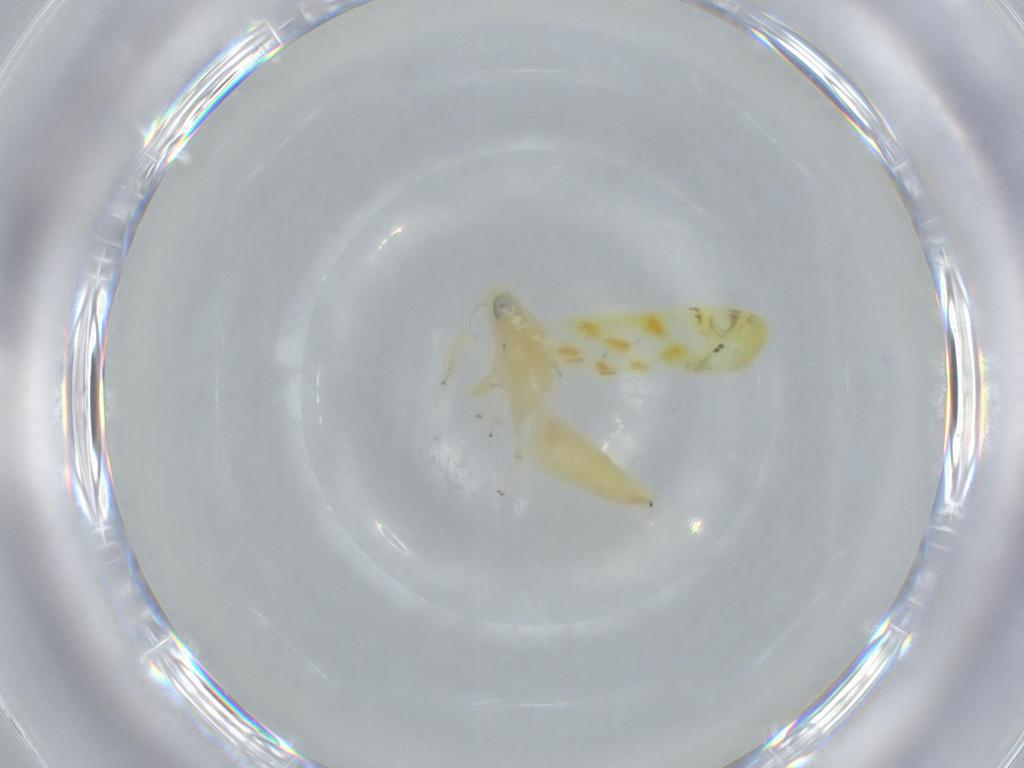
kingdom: Animalia
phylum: Arthropoda
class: Insecta
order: Hemiptera
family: Cicadellidae
